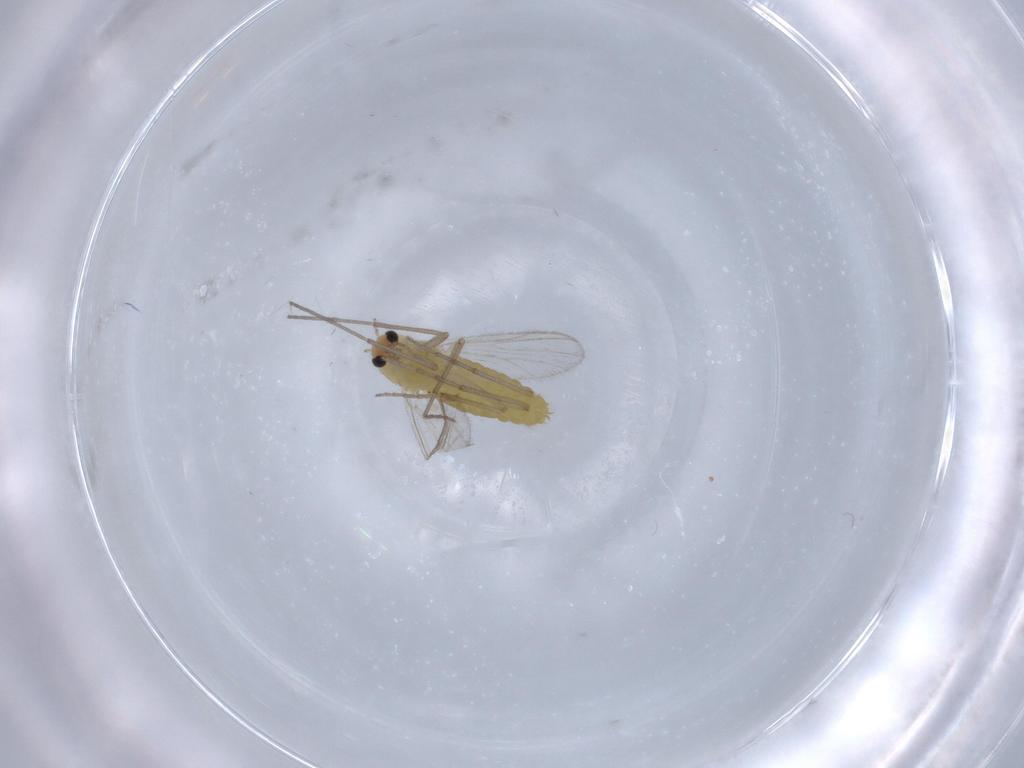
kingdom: Animalia
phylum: Arthropoda
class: Insecta
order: Diptera
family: Chironomidae
